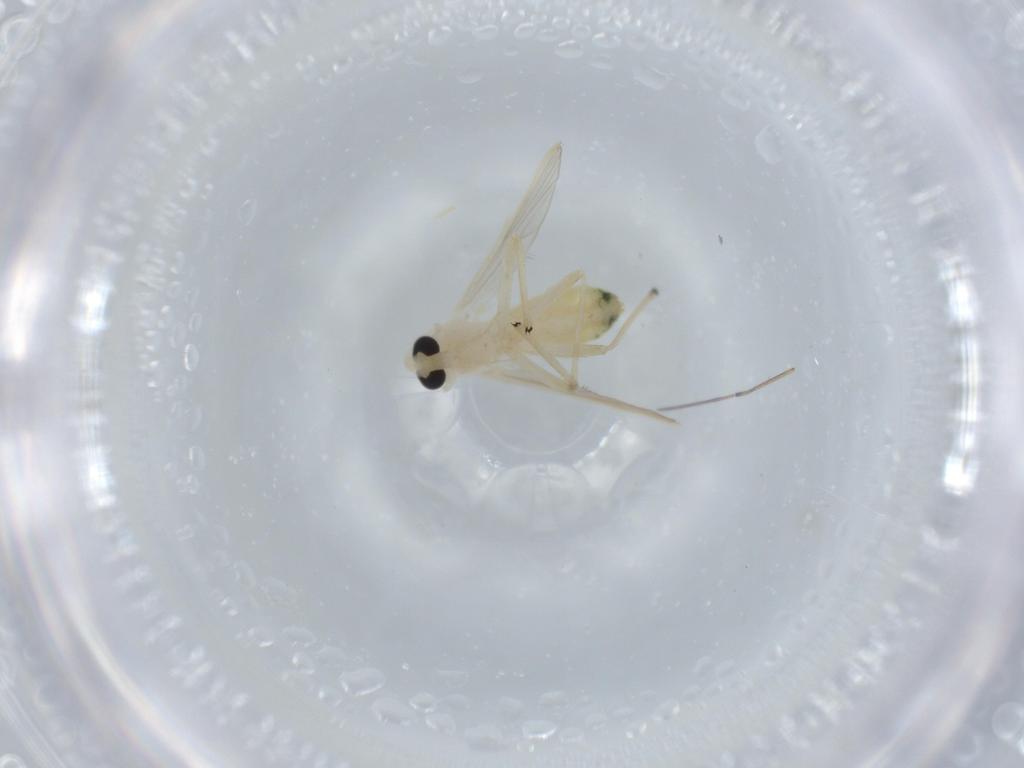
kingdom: Animalia
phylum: Arthropoda
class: Insecta
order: Diptera
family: Chironomidae
